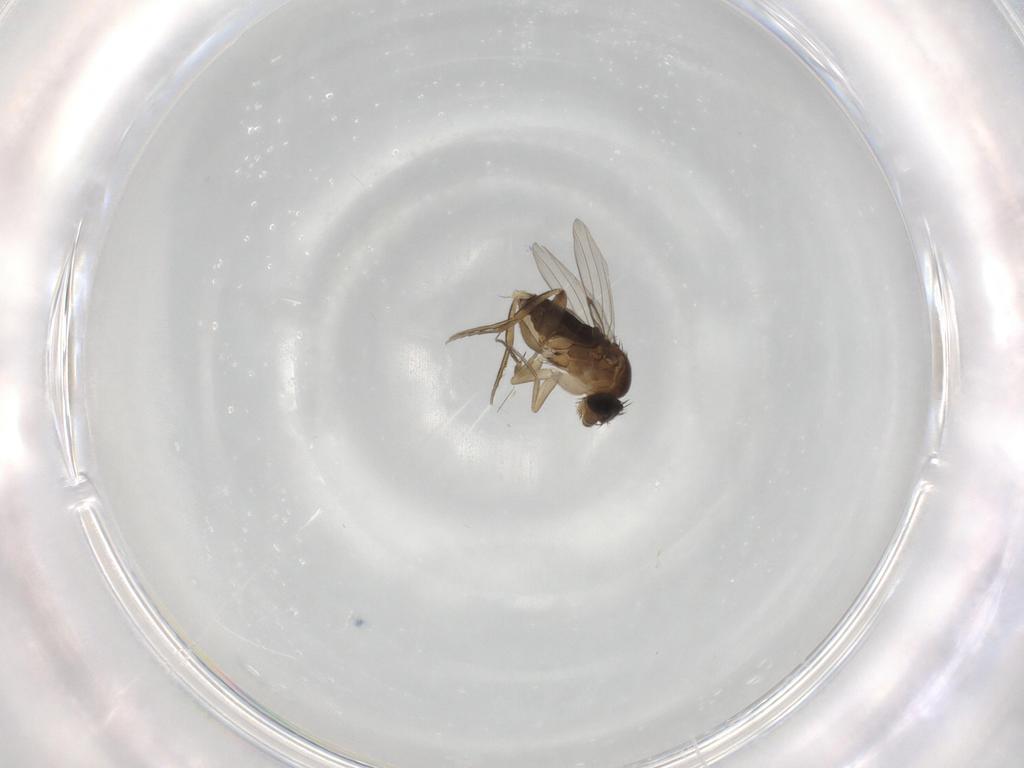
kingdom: Animalia
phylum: Arthropoda
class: Insecta
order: Diptera
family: Phoridae
